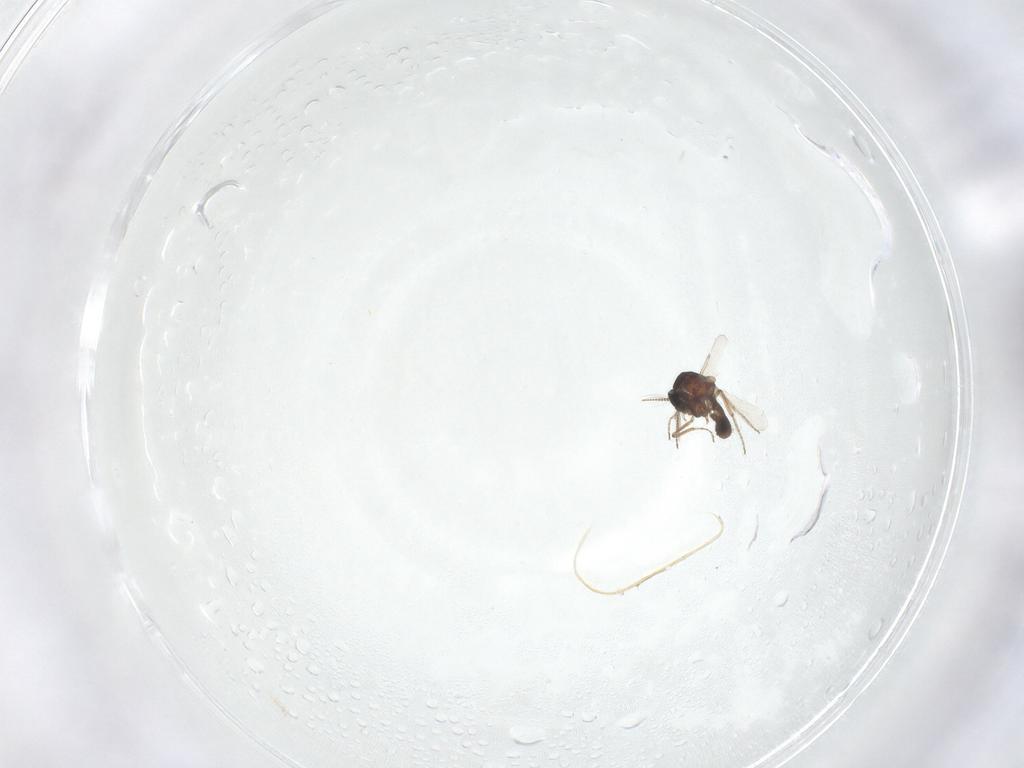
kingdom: Animalia
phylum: Arthropoda
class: Insecta
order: Diptera
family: Ceratopogonidae
